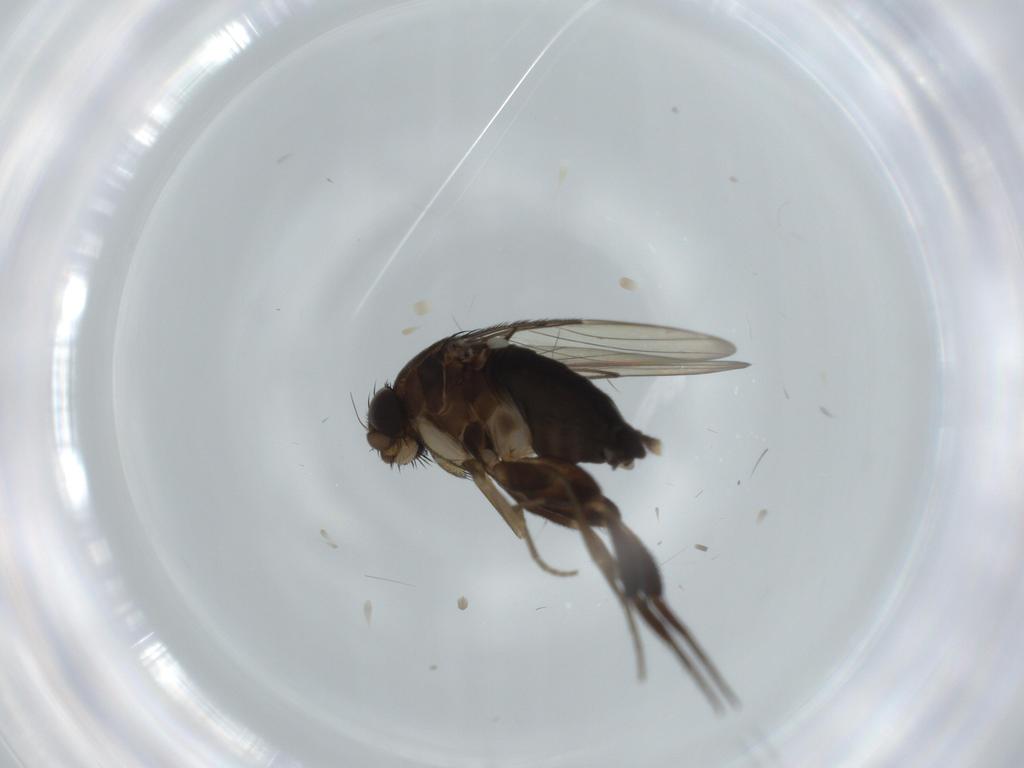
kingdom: Animalia
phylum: Arthropoda
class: Insecta
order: Diptera
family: Phoridae
